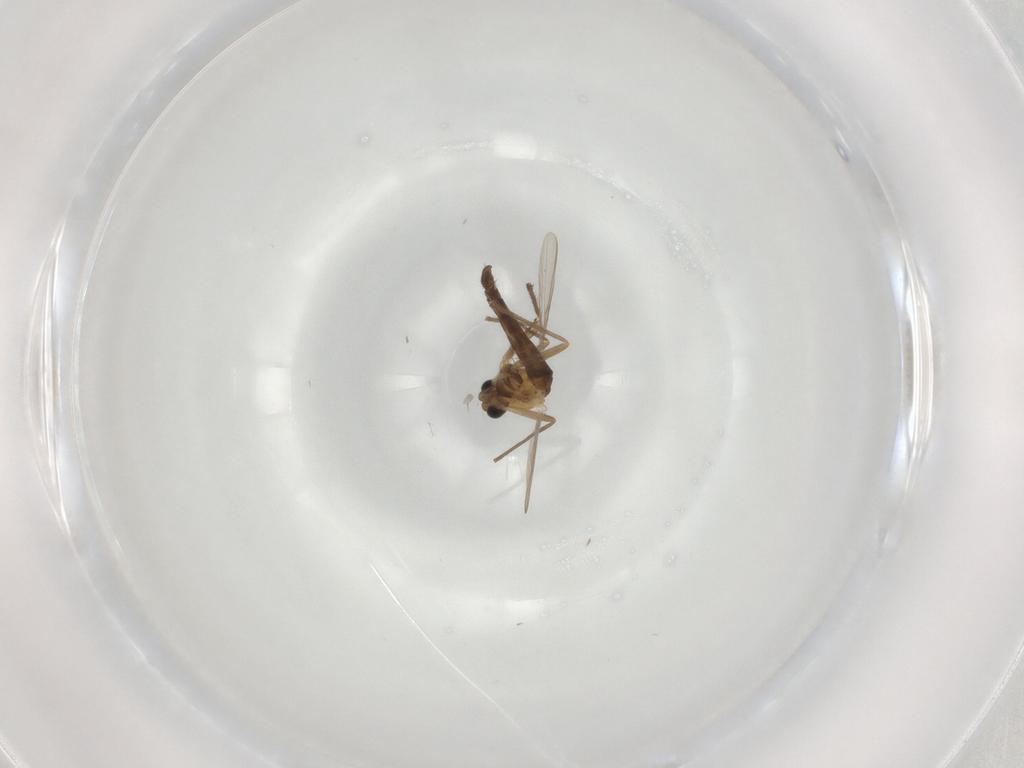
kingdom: Animalia
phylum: Arthropoda
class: Insecta
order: Diptera
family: Chironomidae
